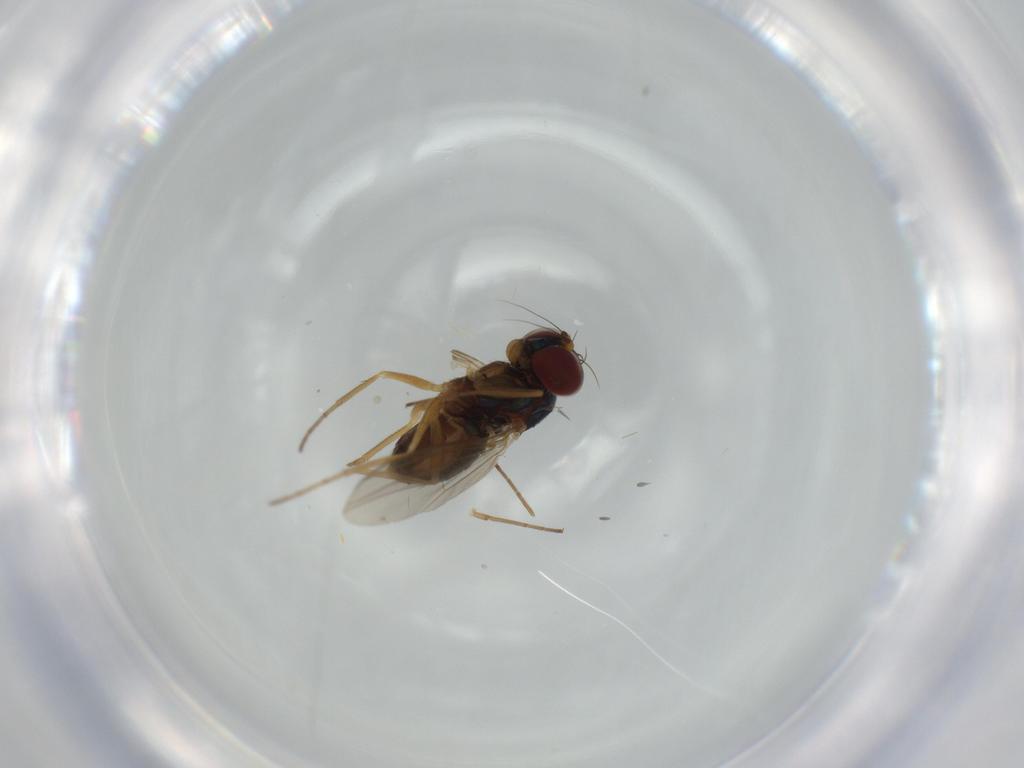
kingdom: Animalia
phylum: Arthropoda
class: Insecta
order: Diptera
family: Dolichopodidae
